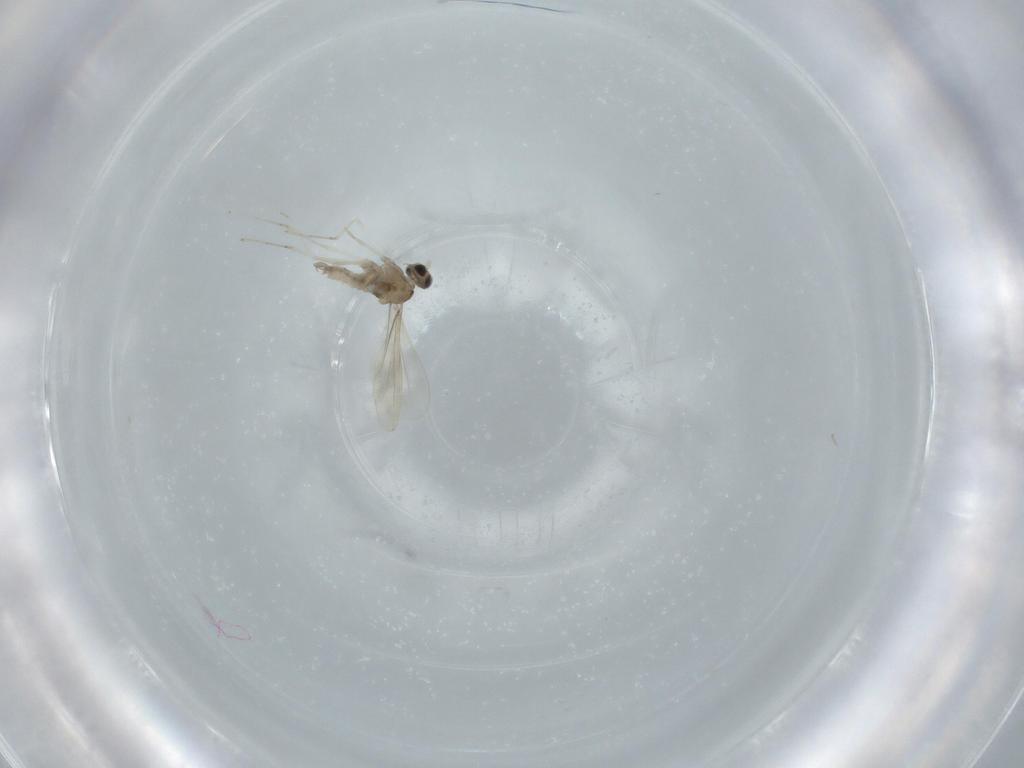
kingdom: Animalia
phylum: Arthropoda
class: Insecta
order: Diptera
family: Cecidomyiidae
